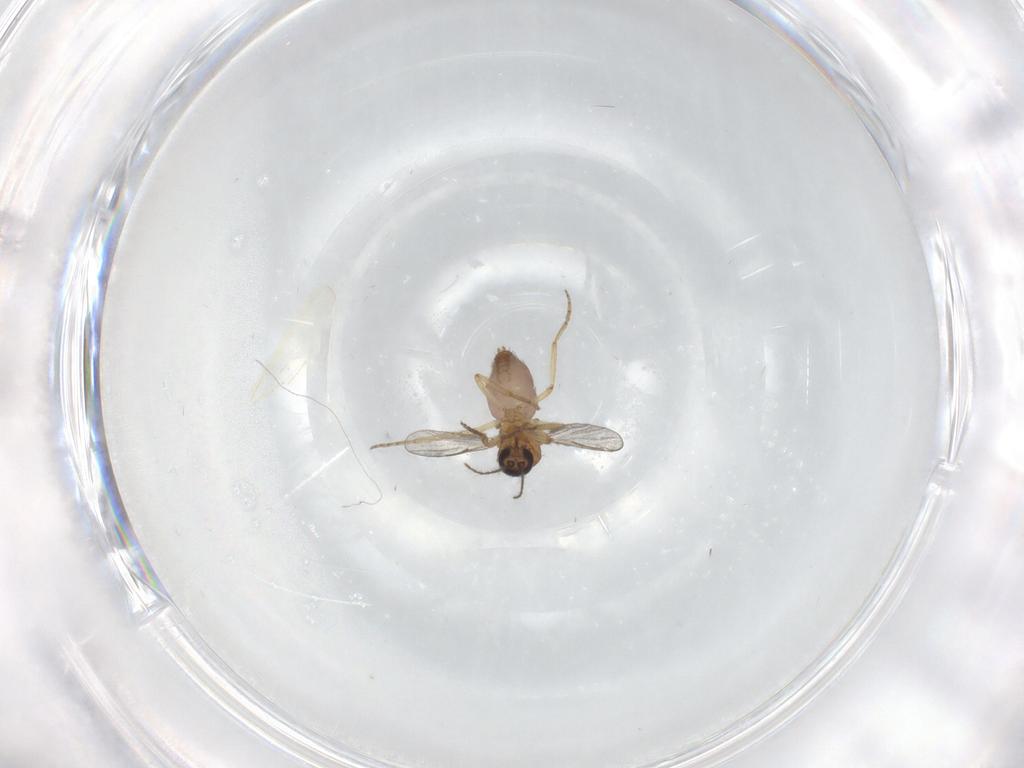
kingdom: Animalia
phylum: Arthropoda
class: Insecta
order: Diptera
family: Chironomidae
